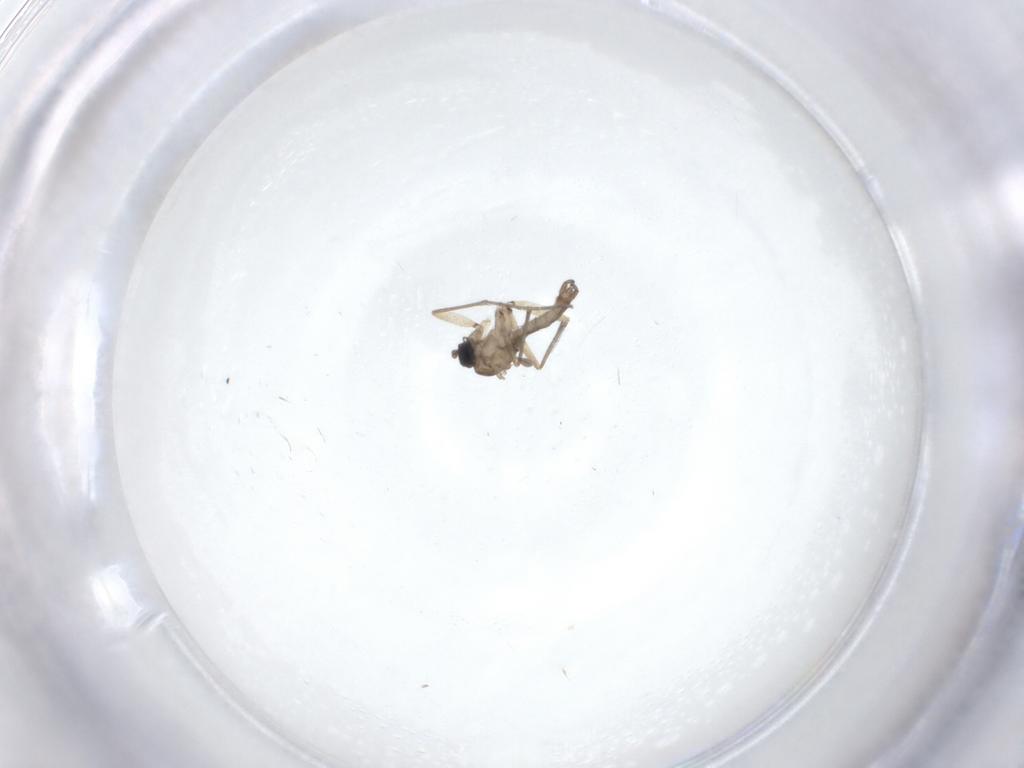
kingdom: Animalia
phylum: Arthropoda
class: Insecta
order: Diptera
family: Sciaridae
